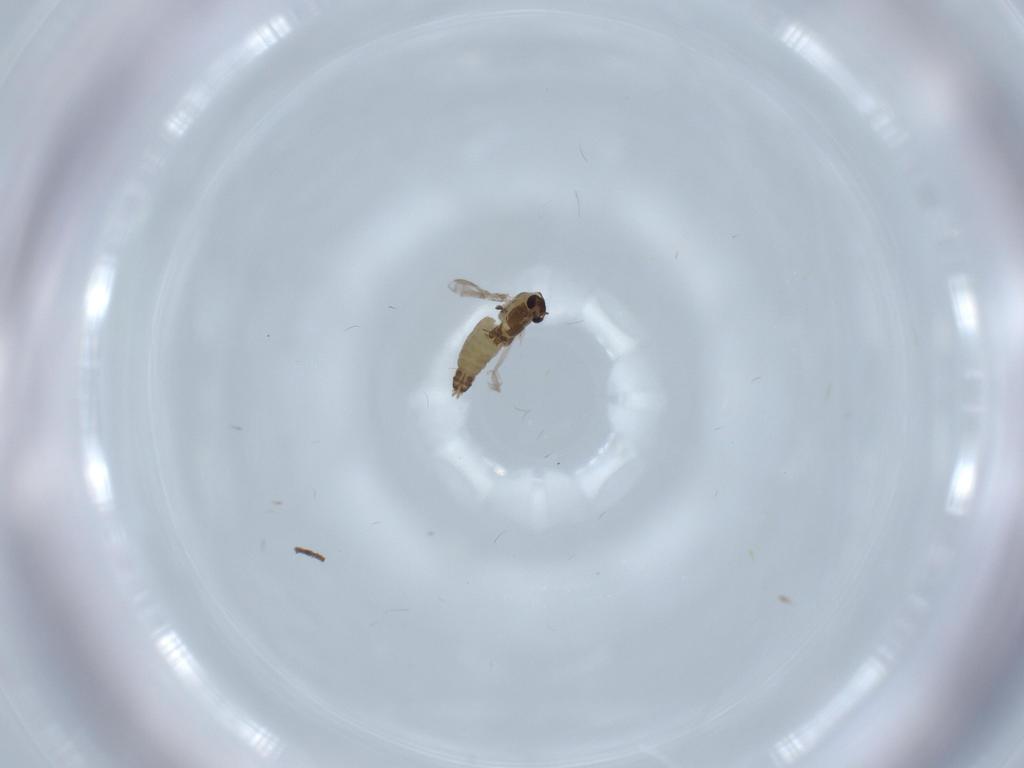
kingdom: Animalia
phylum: Arthropoda
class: Insecta
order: Diptera
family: Chironomidae
